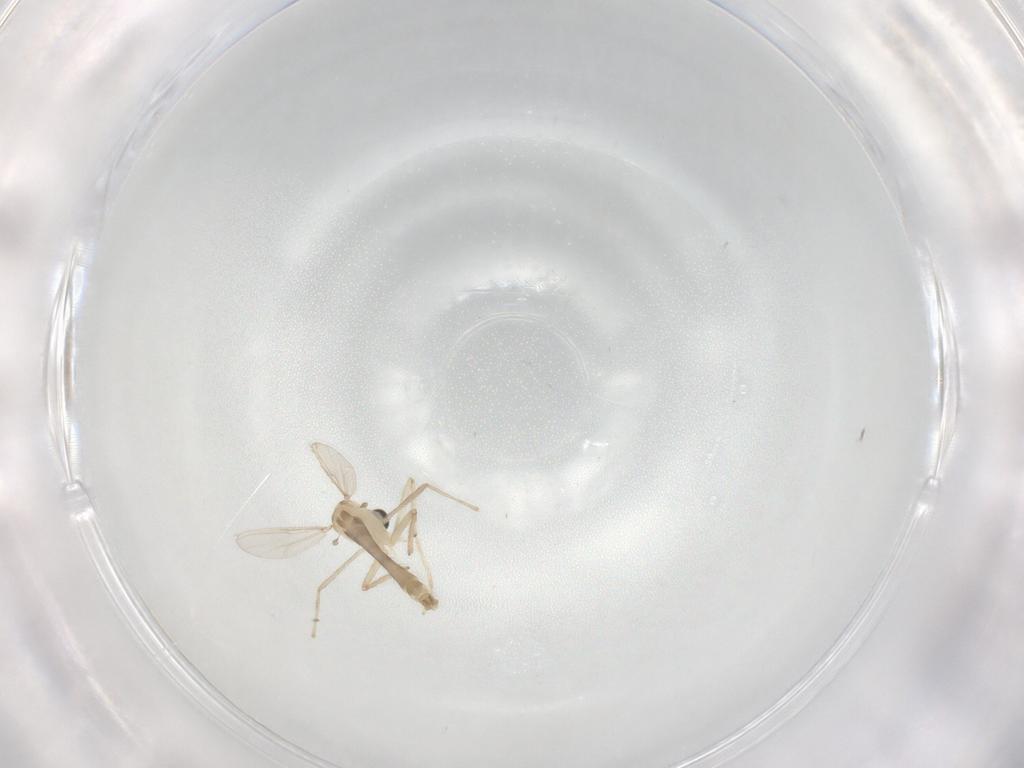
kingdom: Animalia
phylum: Arthropoda
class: Insecta
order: Diptera
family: Chironomidae
